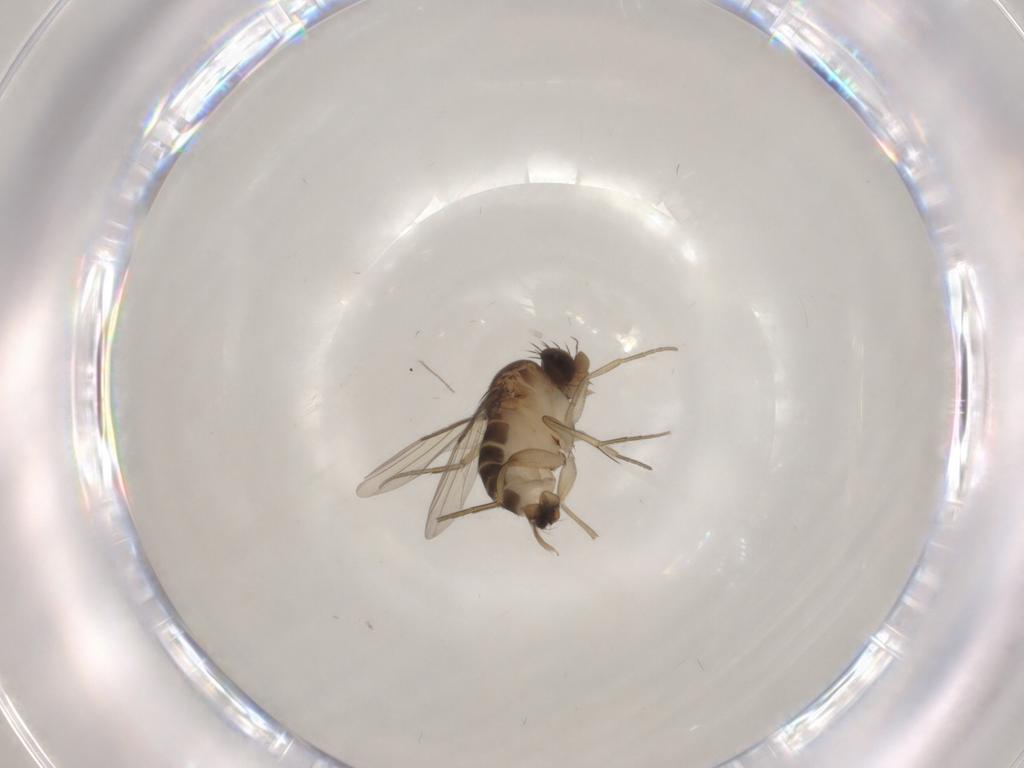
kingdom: Animalia
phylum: Arthropoda
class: Insecta
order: Diptera
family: Phoridae
